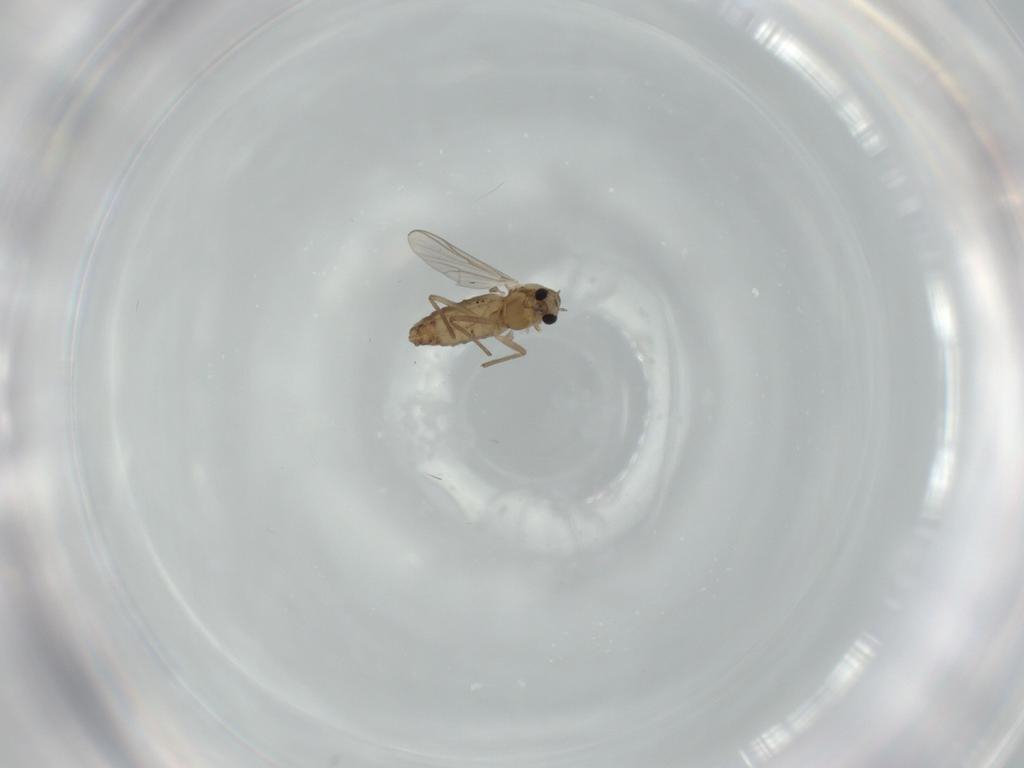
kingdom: Animalia
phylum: Arthropoda
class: Insecta
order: Diptera
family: Chironomidae
